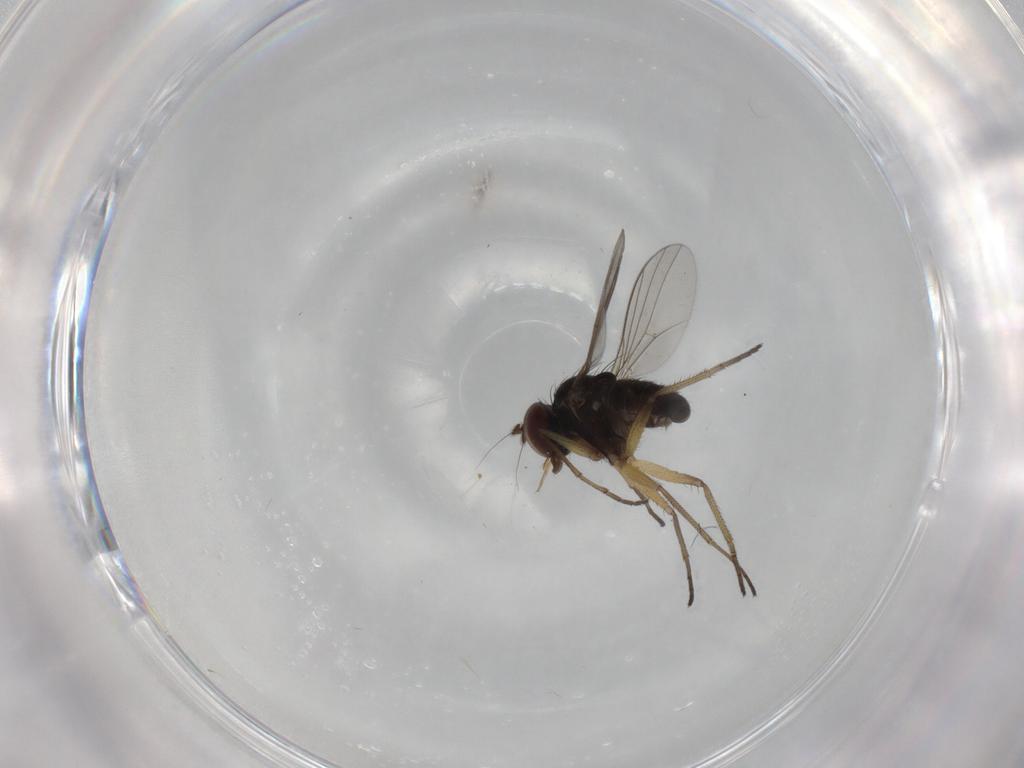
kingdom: Animalia
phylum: Arthropoda
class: Insecta
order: Diptera
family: Dolichopodidae
